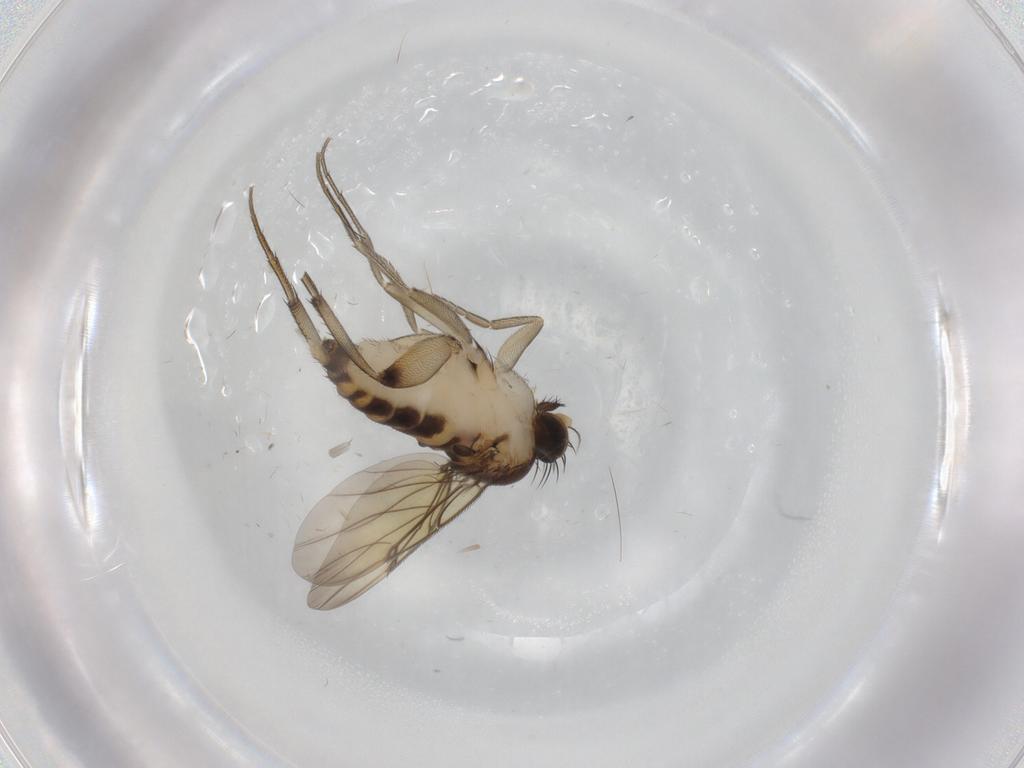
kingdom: Animalia
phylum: Arthropoda
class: Insecta
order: Diptera
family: Phoridae
